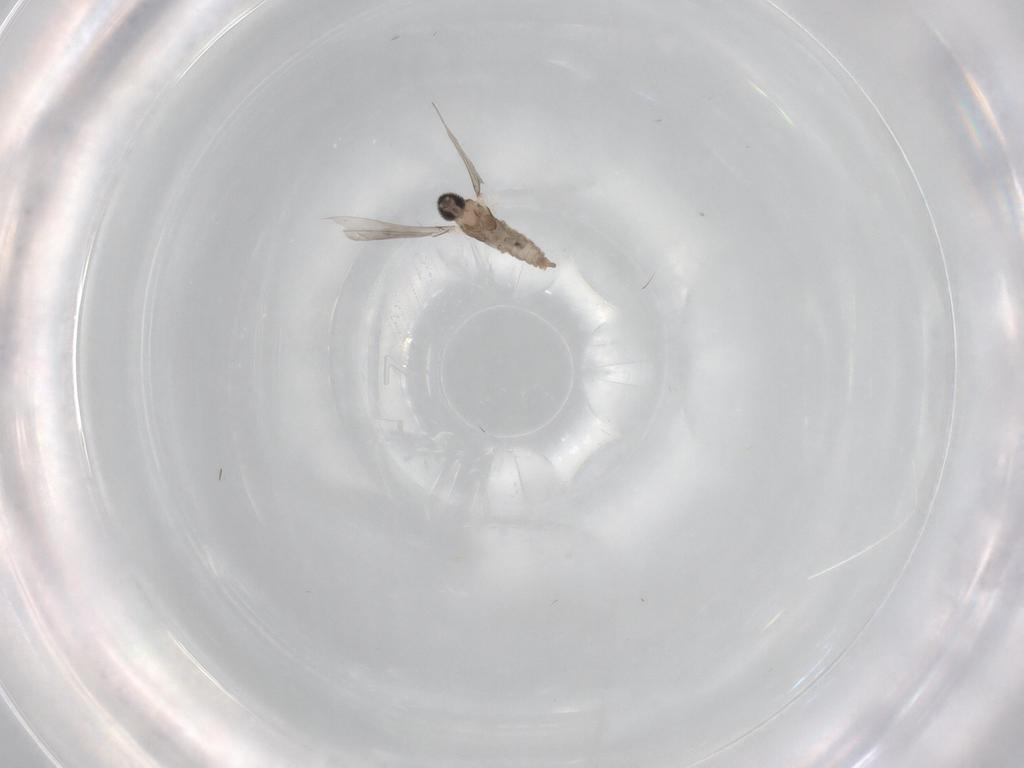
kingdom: Animalia
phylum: Arthropoda
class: Insecta
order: Diptera
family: Cecidomyiidae
